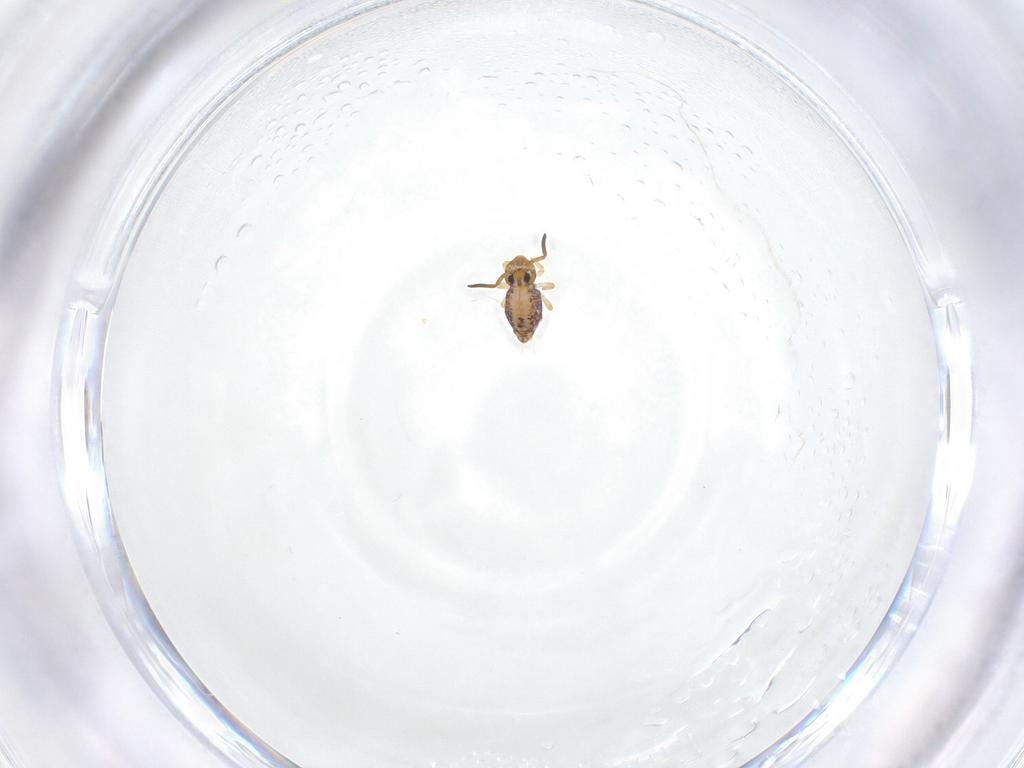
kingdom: Animalia
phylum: Arthropoda
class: Collembola
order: Symphypleona
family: Katiannidae
